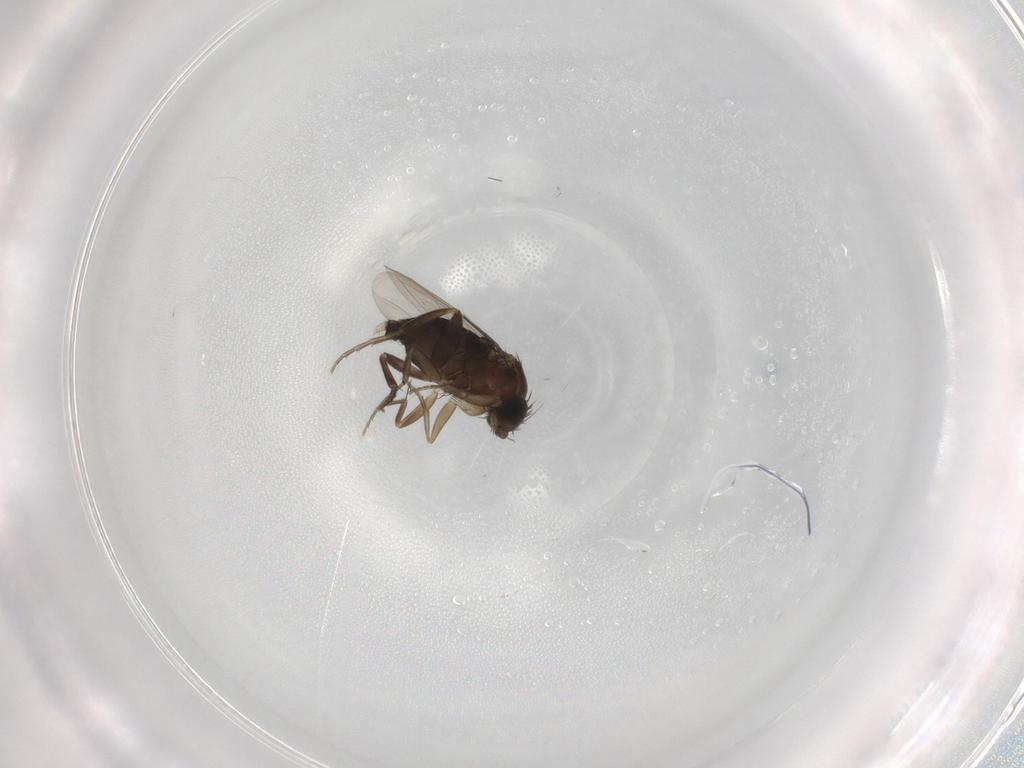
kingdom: Animalia
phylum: Arthropoda
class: Insecta
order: Diptera
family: Phoridae
